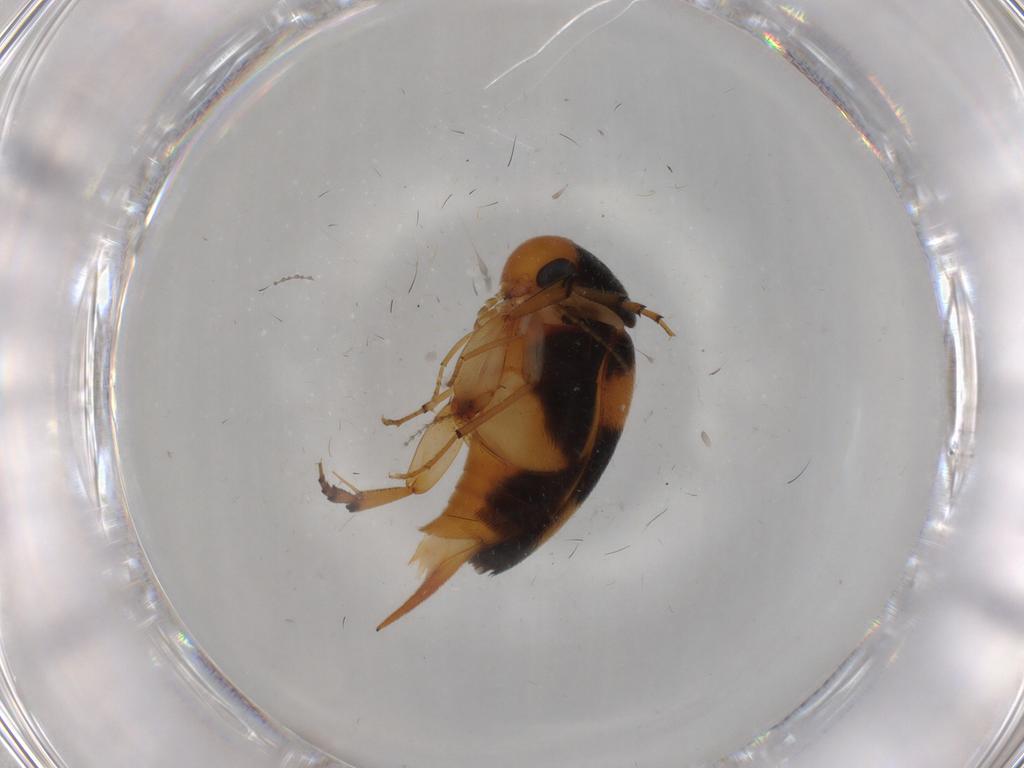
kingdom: Animalia
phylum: Arthropoda
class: Insecta
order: Coleoptera
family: Mordellidae
